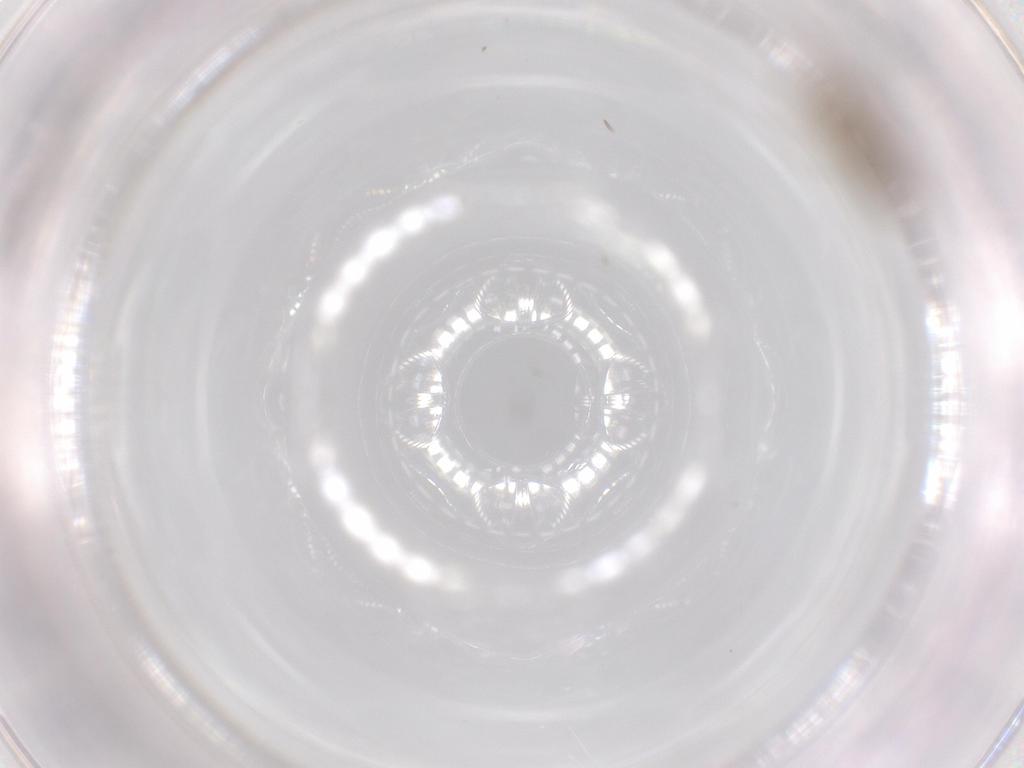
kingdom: Animalia
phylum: Arthropoda
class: Insecta
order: Diptera
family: Chironomidae
